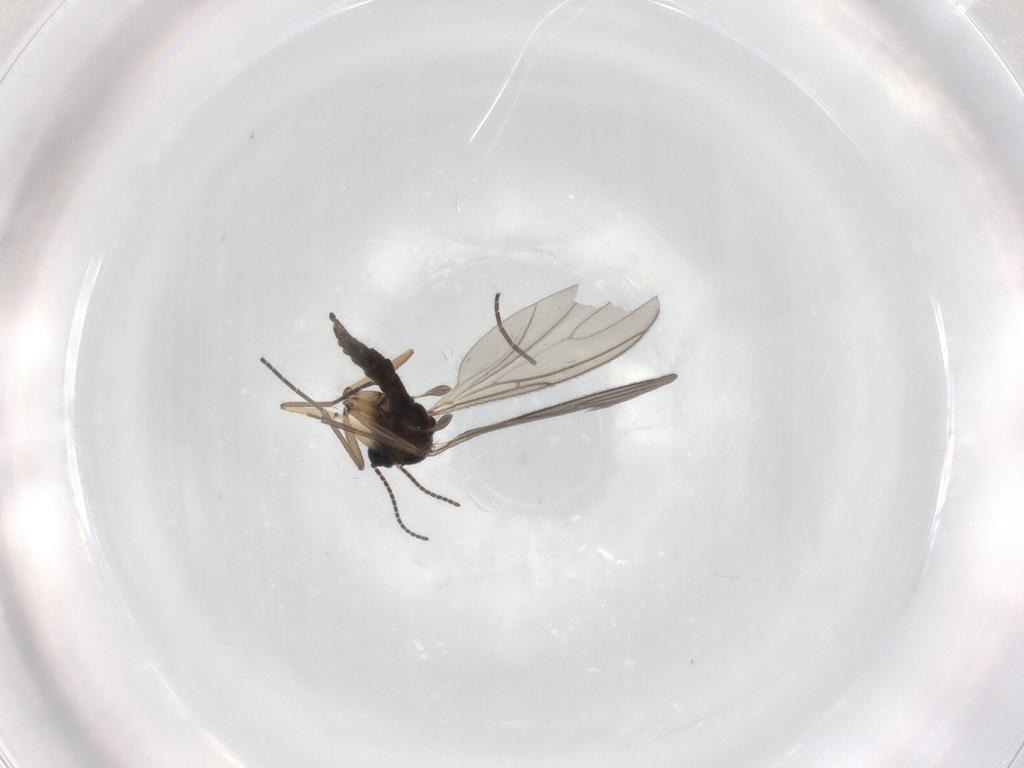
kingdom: Animalia
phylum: Arthropoda
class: Insecta
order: Diptera
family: Sciaridae
